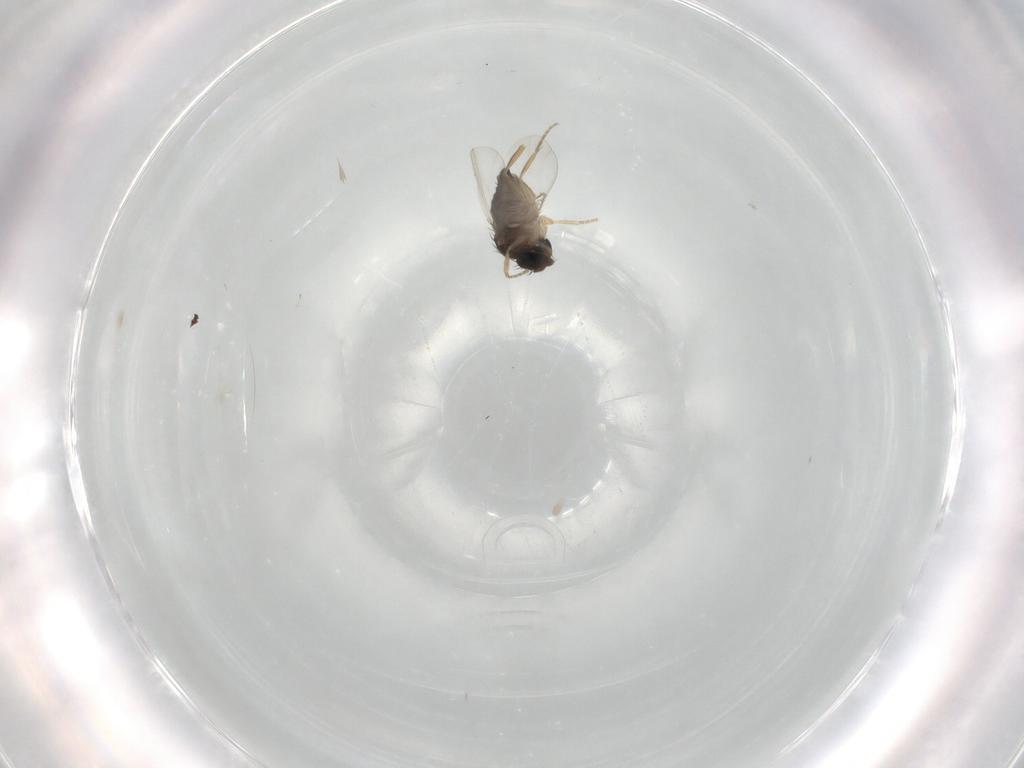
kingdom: Animalia
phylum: Arthropoda
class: Insecta
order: Diptera
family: Phoridae
